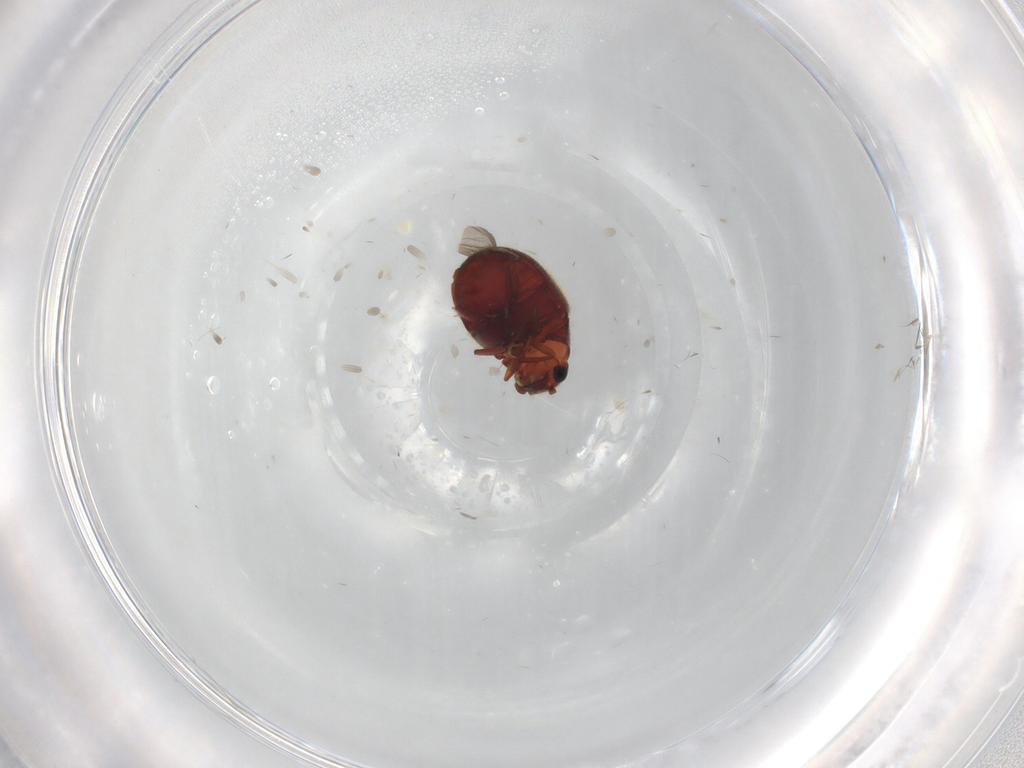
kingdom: Animalia
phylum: Arthropoda
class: Insecta
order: Coleoptera
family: Ptinidae
